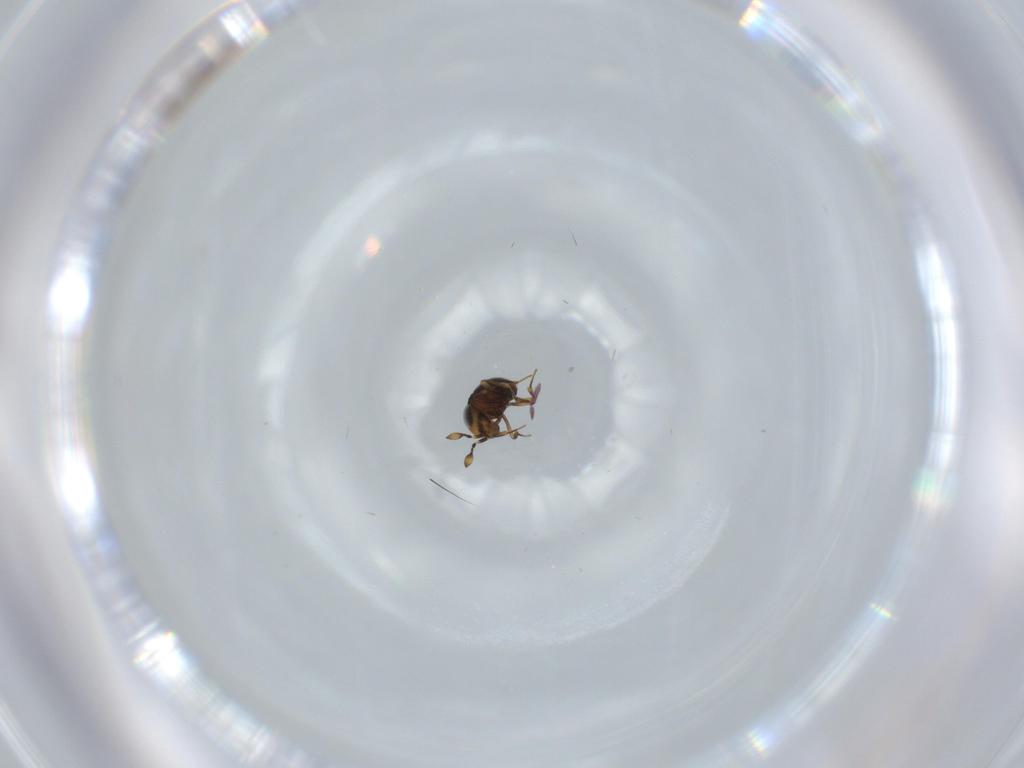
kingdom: Animalia
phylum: Arthropoda
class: Insecta
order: Hymenoptera
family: Scelionidae
